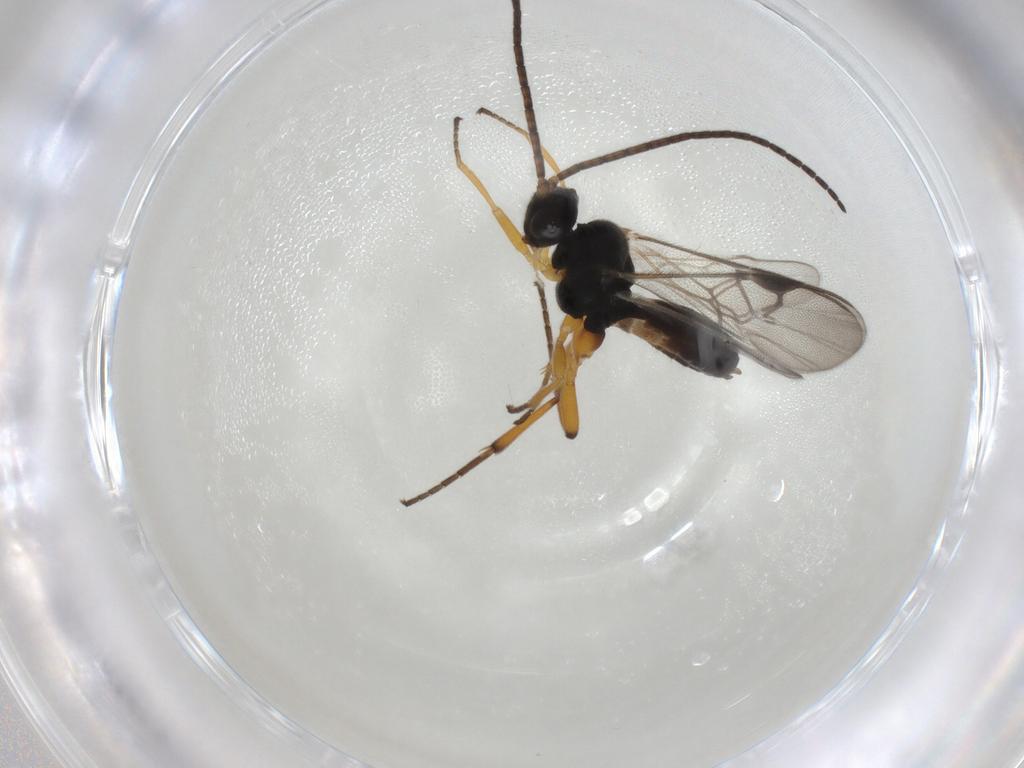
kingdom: Animalia
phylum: Arthropoda
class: Insecta
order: Hymenoptera
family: Braconidae
